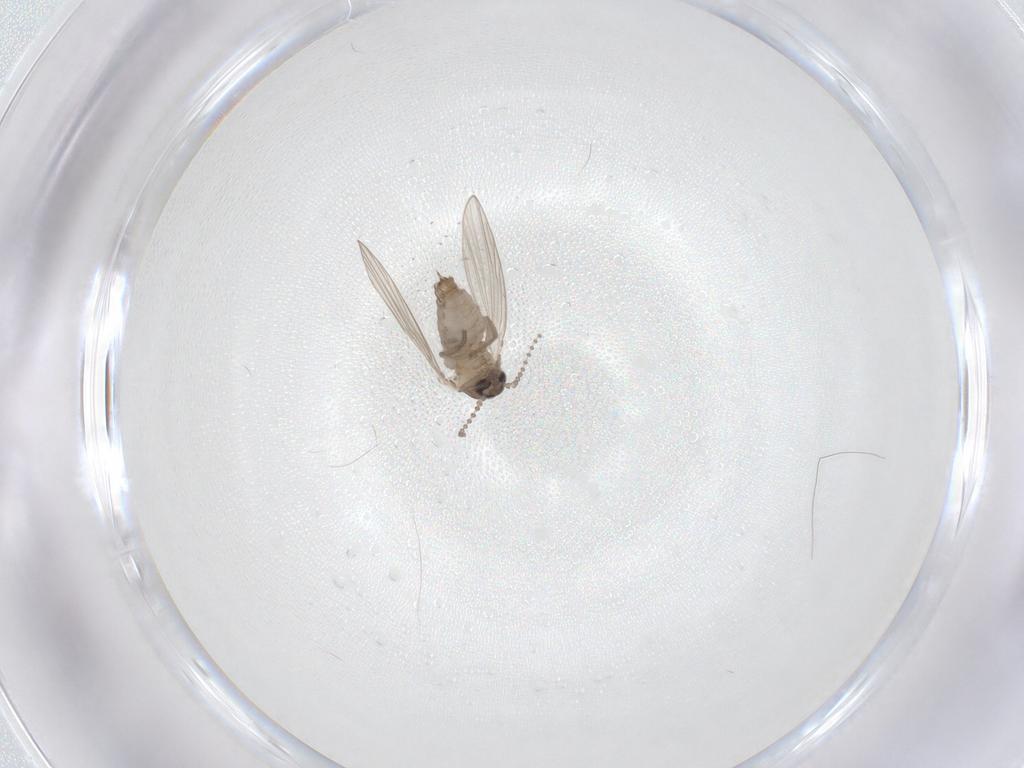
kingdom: Animalia
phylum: Arthropoda
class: Insecta
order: Diptera
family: Psychodidae
